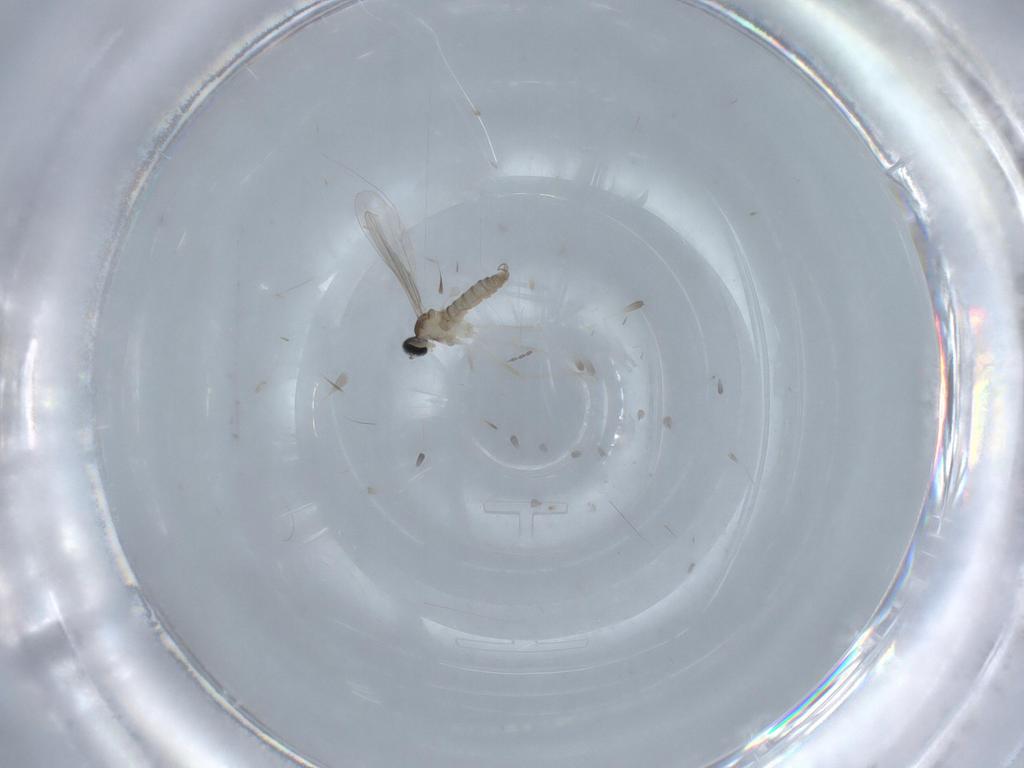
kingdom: Animalia
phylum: Arthropoda
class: Insecta
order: Diptera
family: Cecidomyiidae
